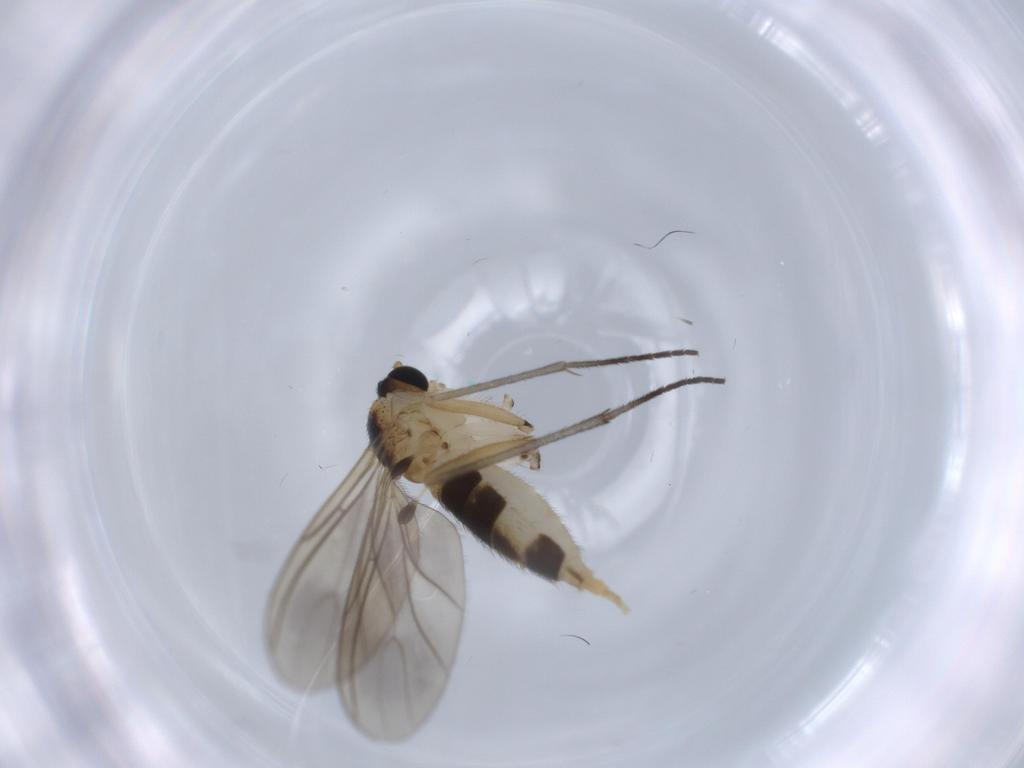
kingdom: Animalia
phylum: Arthropoda
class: Insecta
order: Diptera
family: Sciaridae
